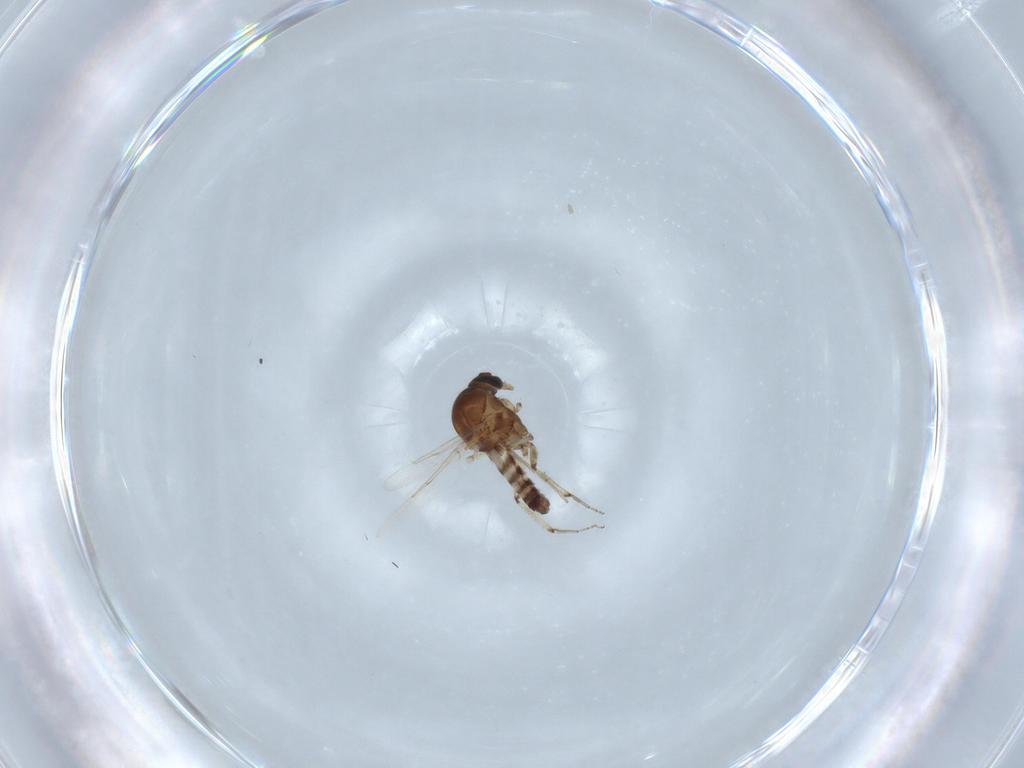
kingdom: Animalia
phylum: Arthropoda
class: Insecta
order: Diptera
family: Ceratopogonidae
